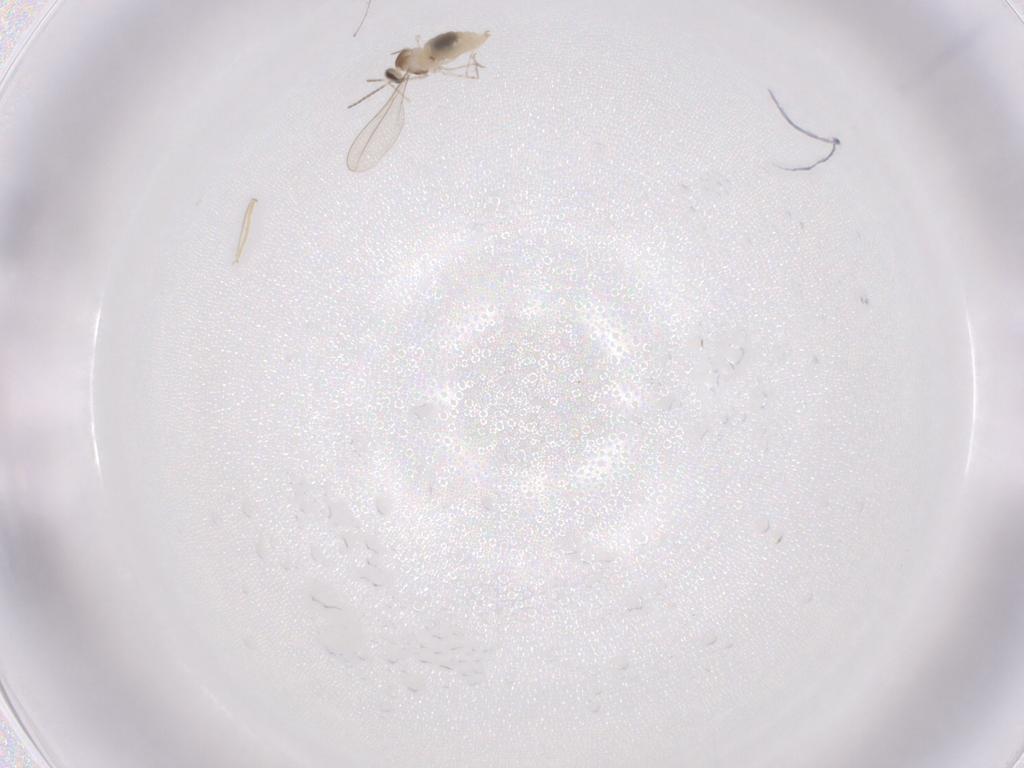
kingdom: Animalia
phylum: Arthropoda
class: Insecta
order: Diptera
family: Cecidomyiidae
